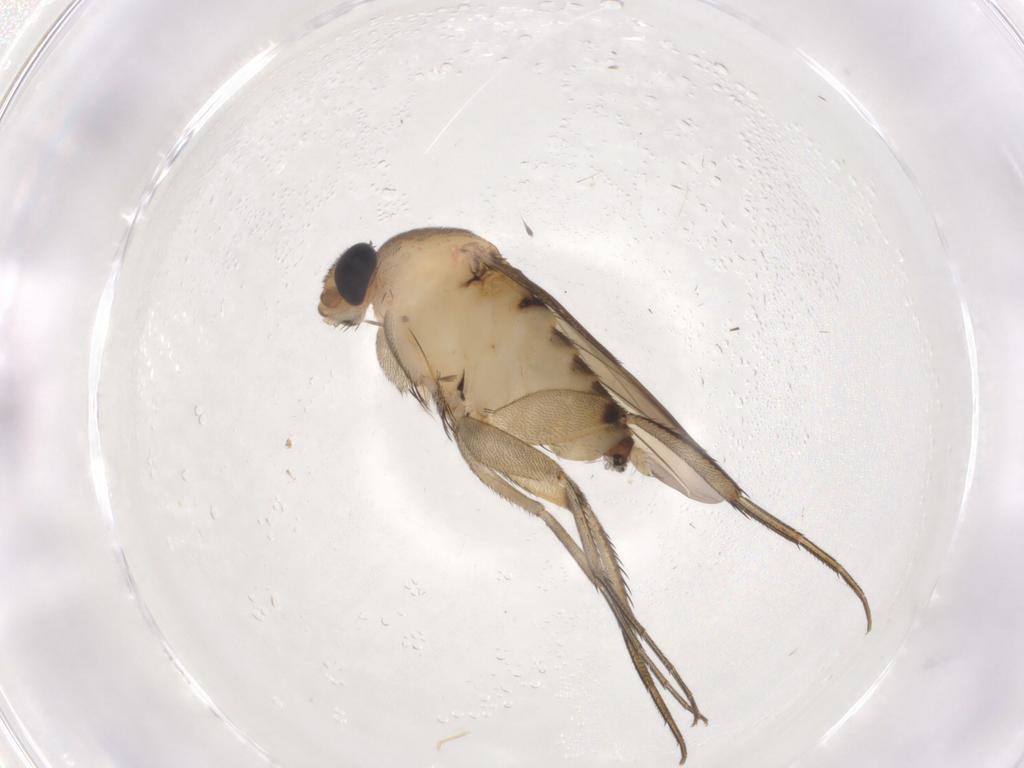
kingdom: Animalia
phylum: Arthropoda
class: Insecta
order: Diptera
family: Phoridae
